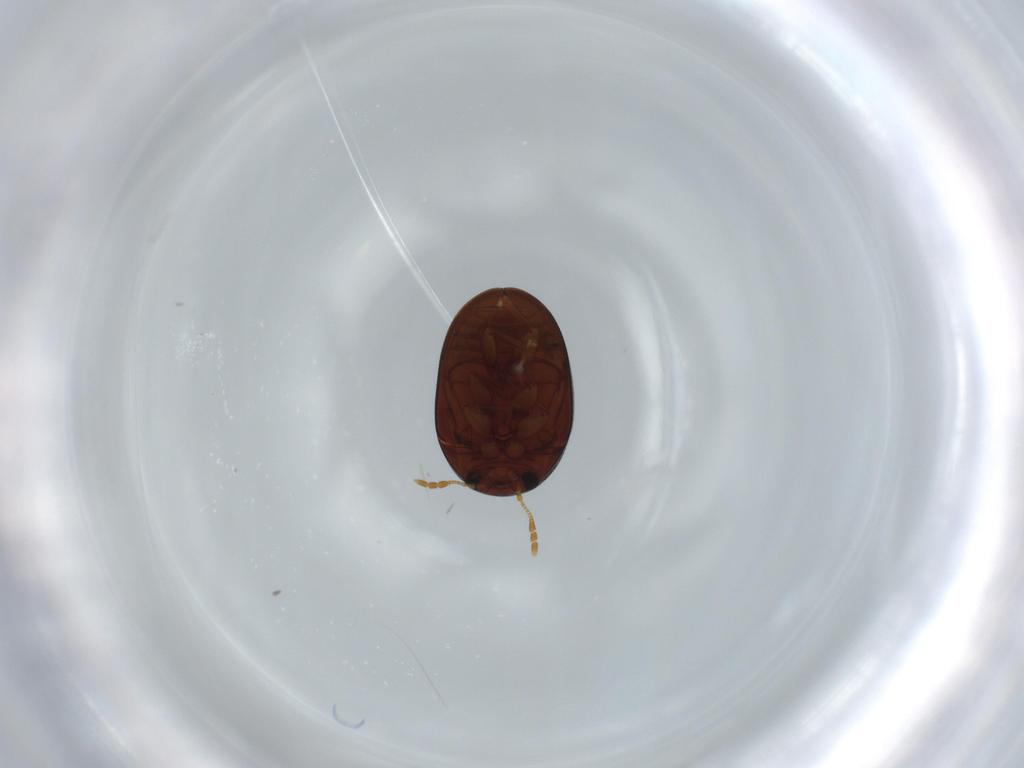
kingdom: Animalia
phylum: Arthropoda
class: Insecta
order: Coleoptera
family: Phalacridae
